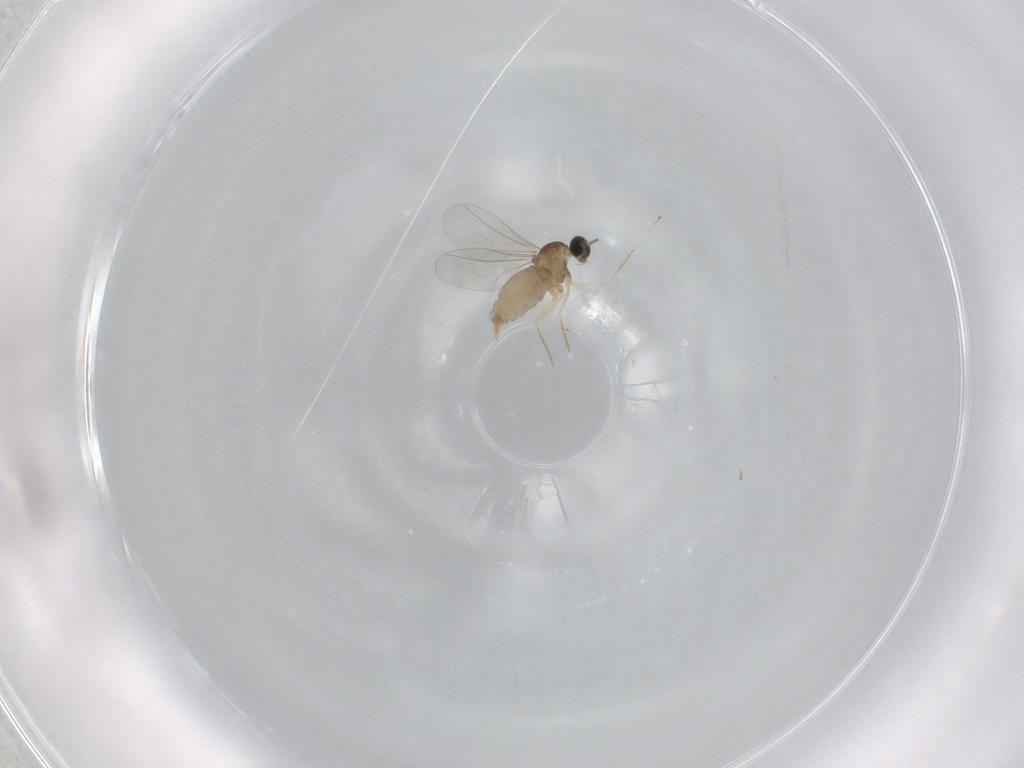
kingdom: Animalia
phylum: Arthropoda
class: Insecta
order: Diptera
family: Cecidomyiidae
